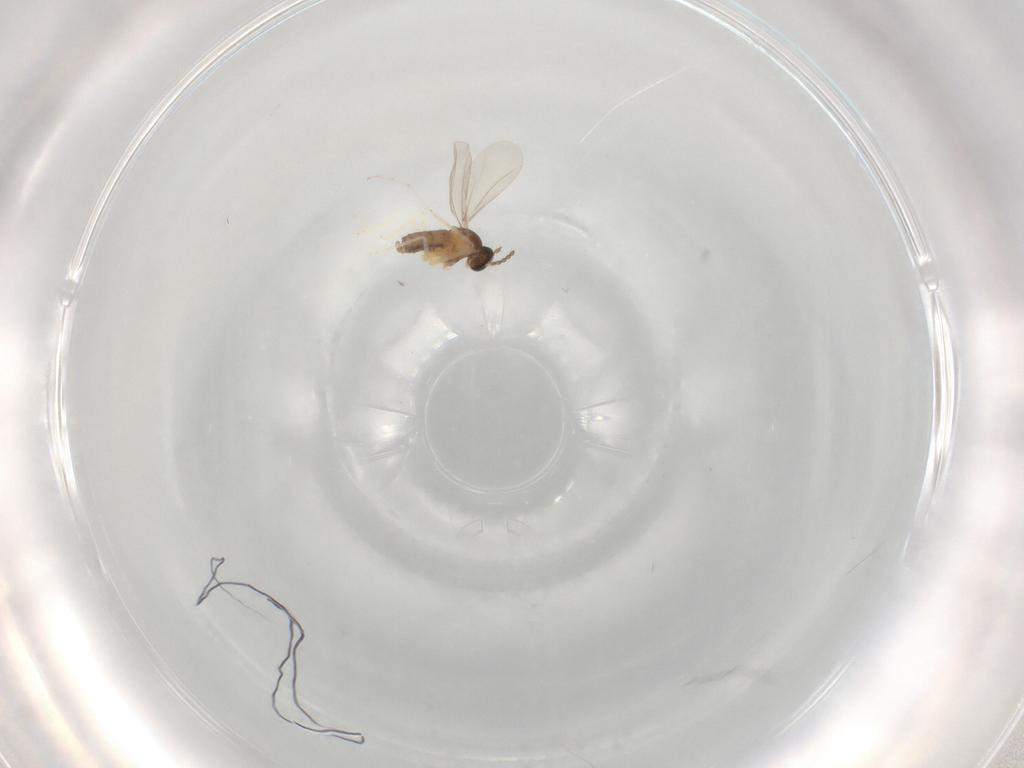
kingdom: Animalia
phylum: Arthropoda
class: Insecta
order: Diptera
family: Cecidomyiidae
